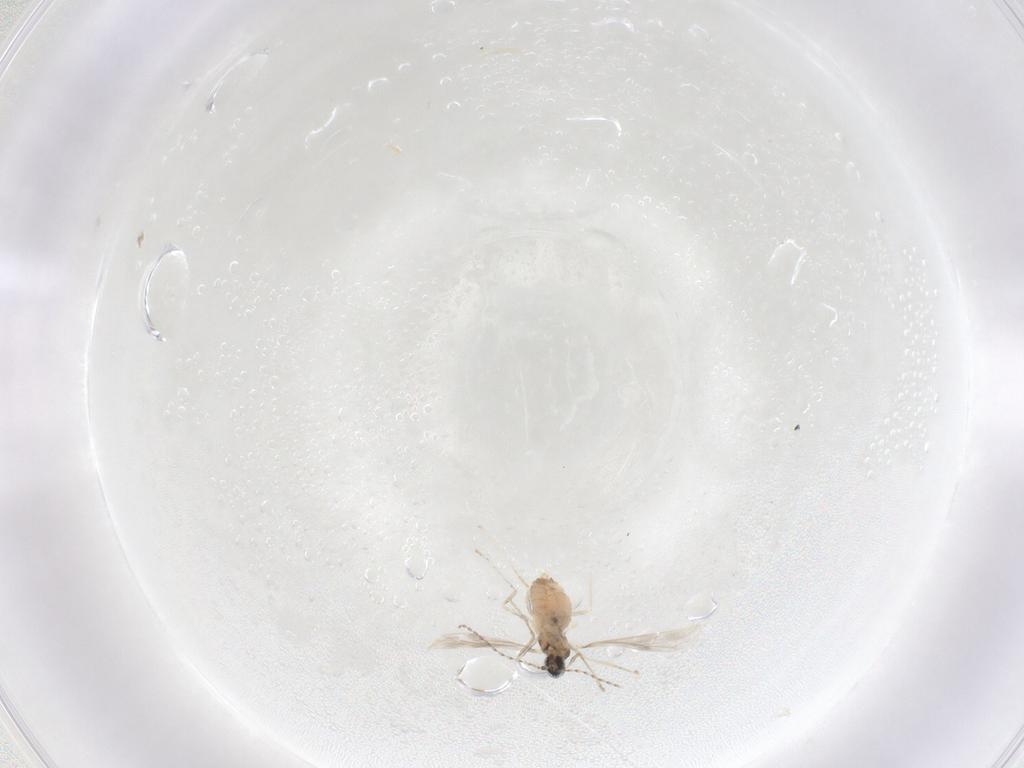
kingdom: Animalia
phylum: Arthropoda
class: Insecta
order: Diptera
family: Cecidomyiidae
